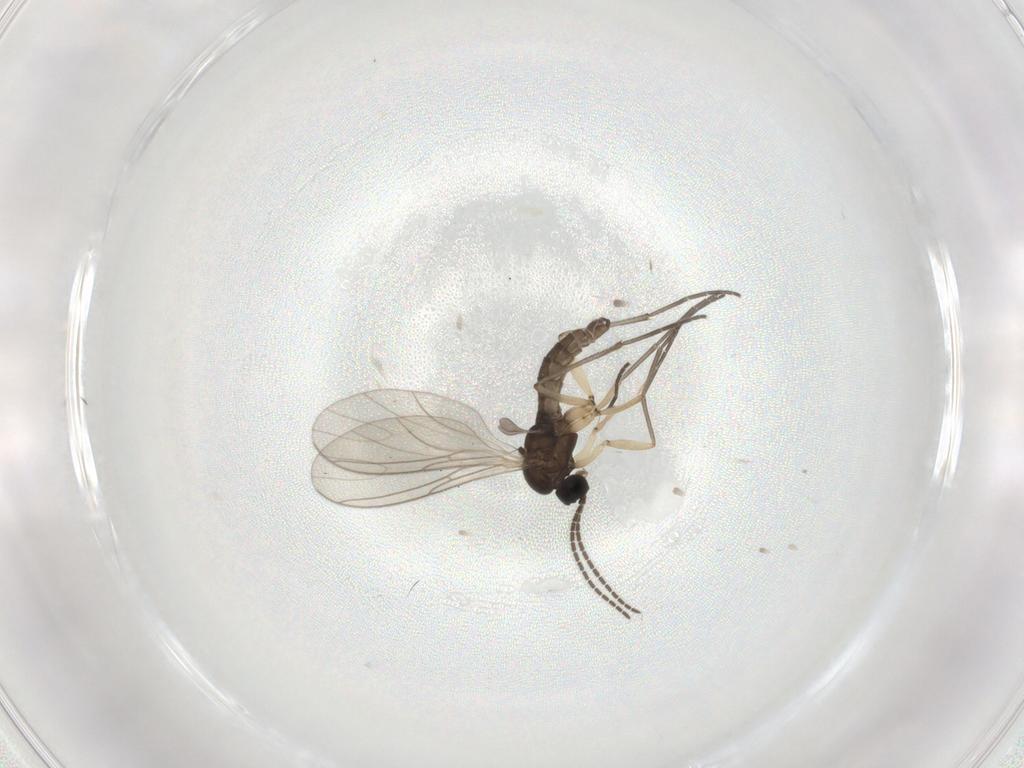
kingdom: Animalia
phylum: Arthropoda
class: Insecta
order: Diptera
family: Sciaridae
